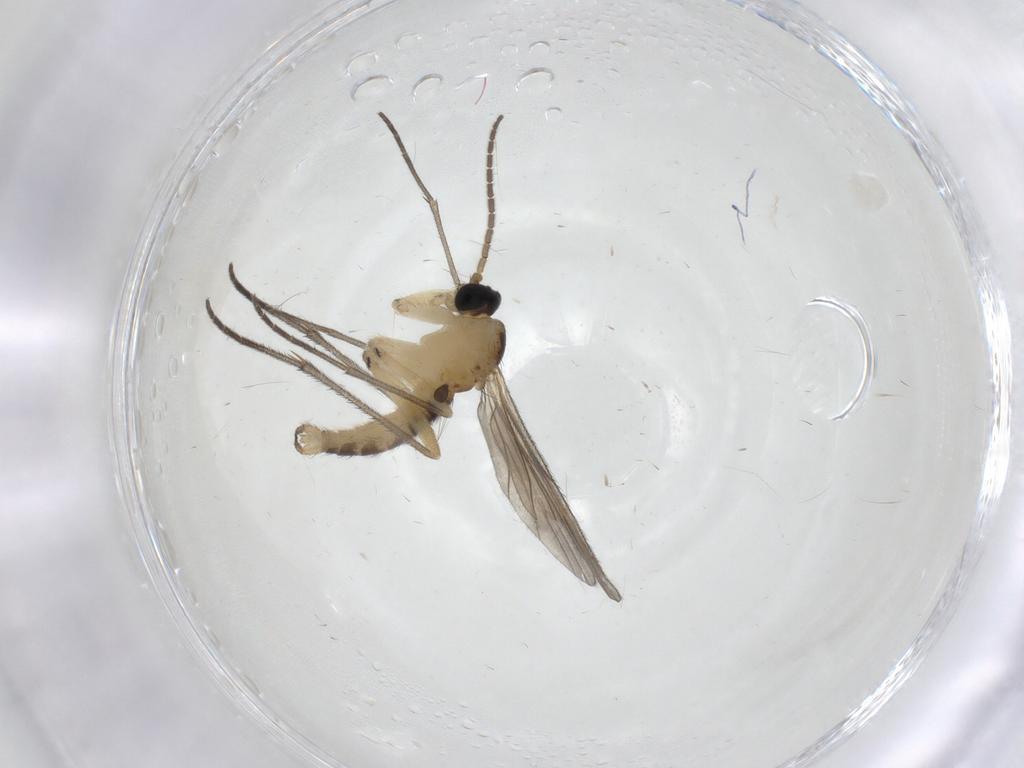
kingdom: Animalia
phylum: Arthropoda
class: Insecta
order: Diptera
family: Sciaridae
